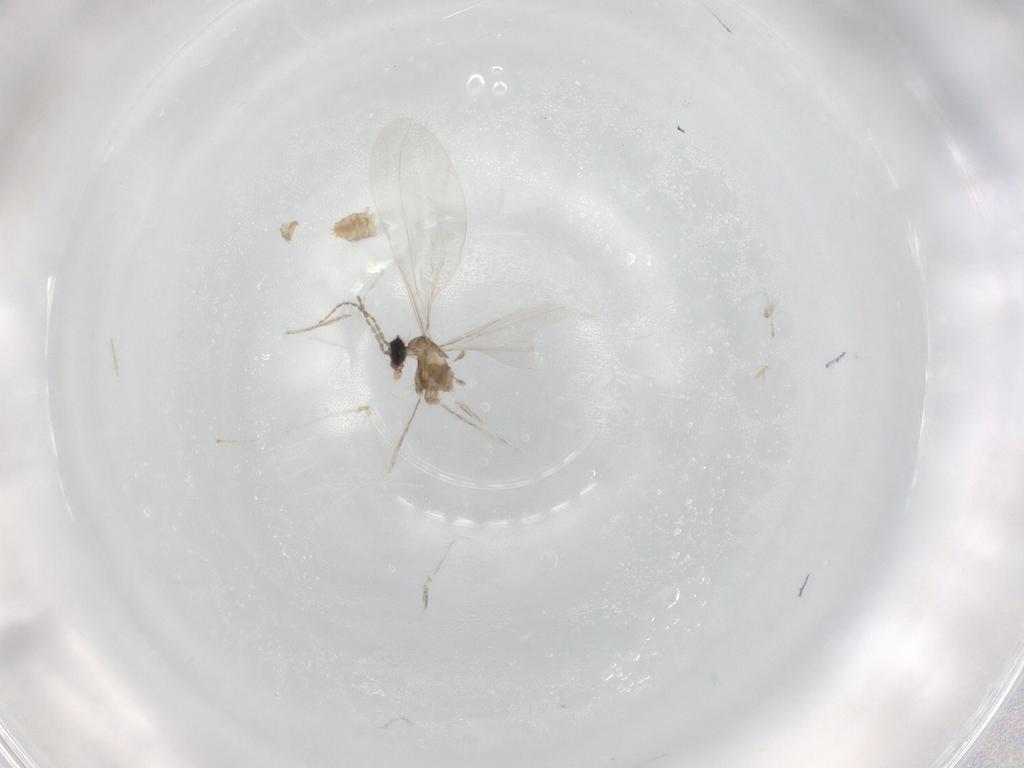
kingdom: Animalia
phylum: Arthropoda
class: Insecta
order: Diptera
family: Cecidomyiidae
